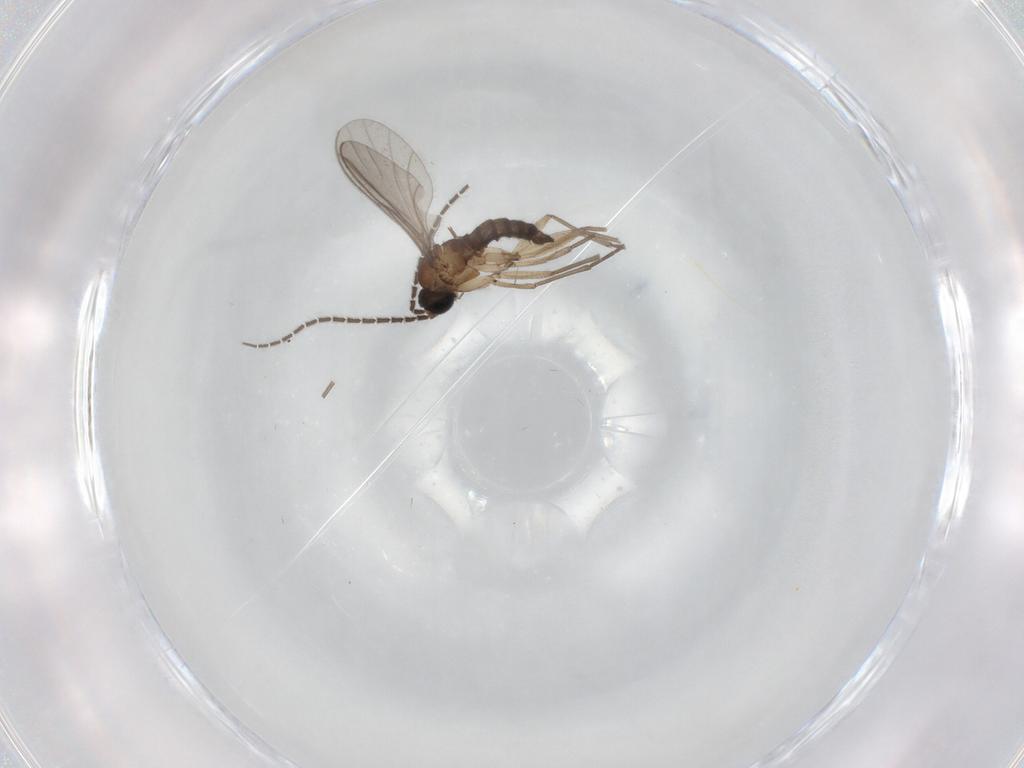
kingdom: Animalia
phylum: Arthropoda
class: Insecta
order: Diptera
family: Sciaridae
